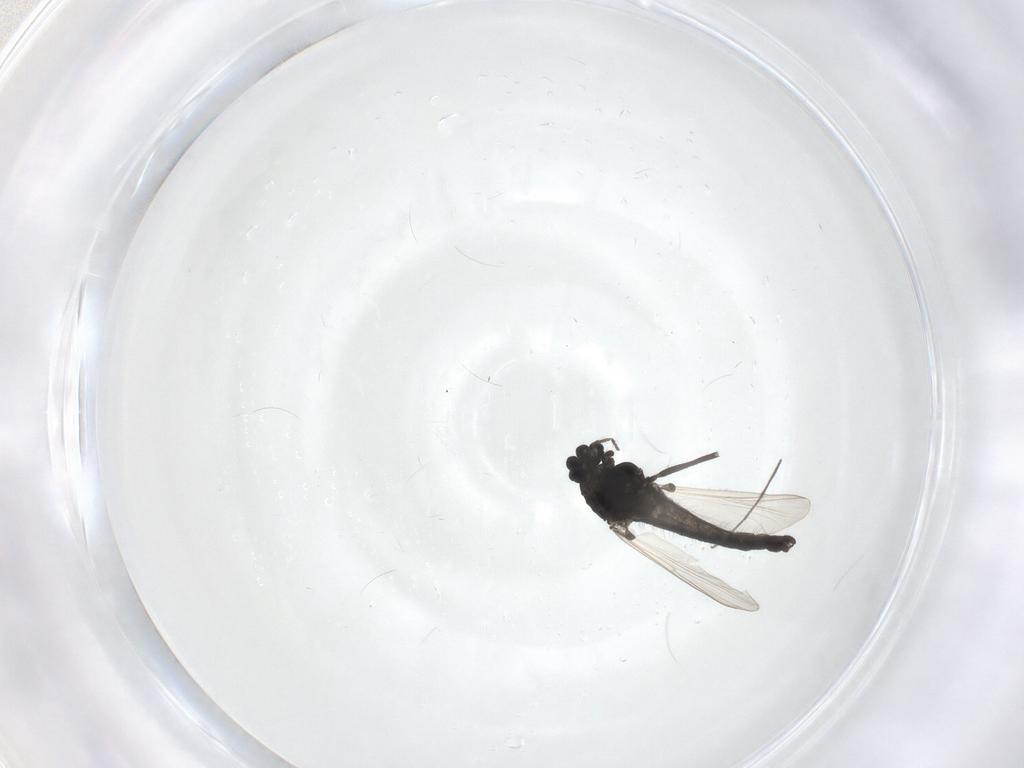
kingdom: Animalia
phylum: Arthropoda
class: Insecta
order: Diptera
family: Chironomidae
